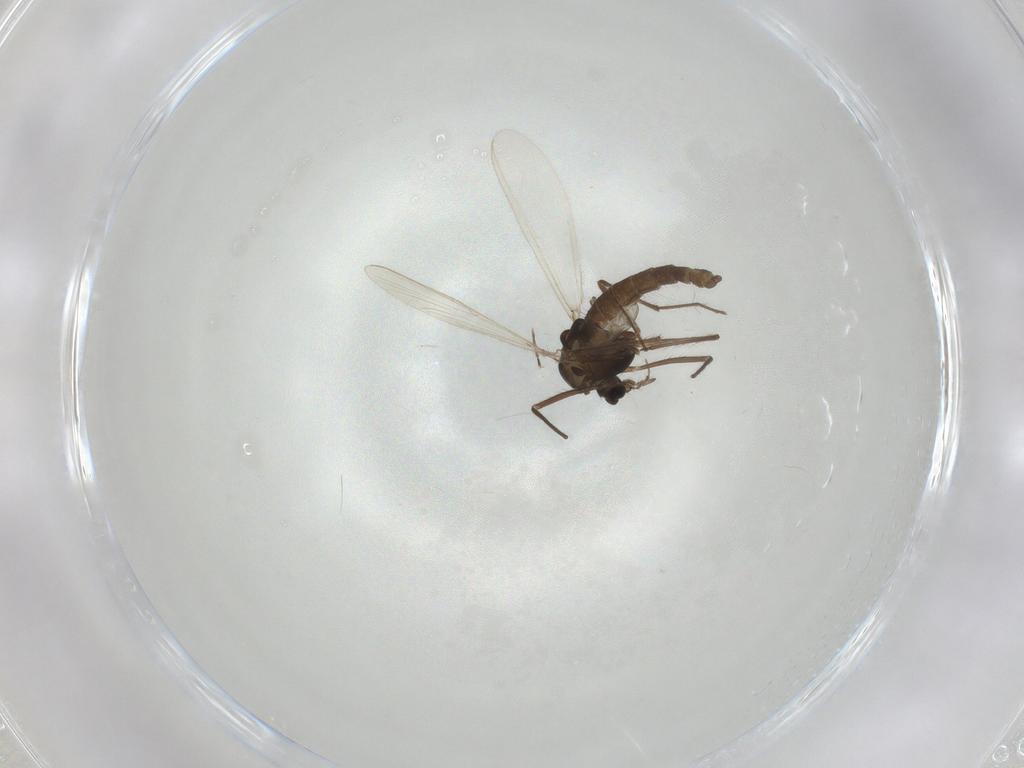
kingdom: Animalia
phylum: Arthropoda
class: Insecta
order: Diptera
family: Chironomidae
